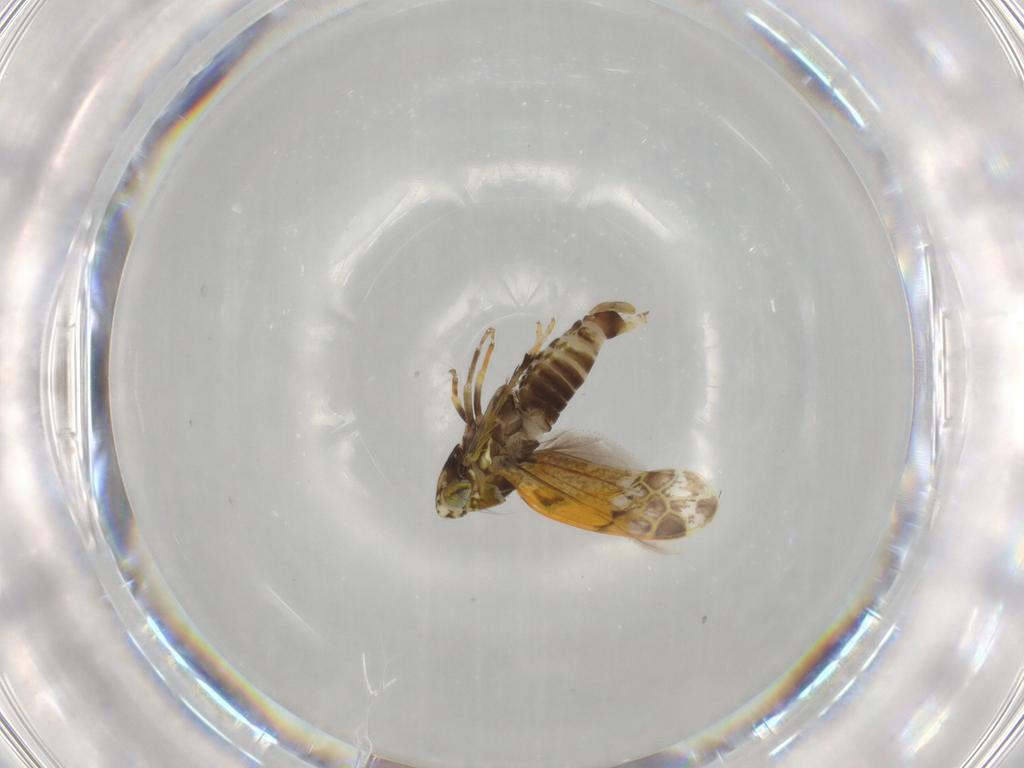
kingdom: Animalia
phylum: Arthropoda
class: Insecta
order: Hemiptera
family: Cicadellidae
